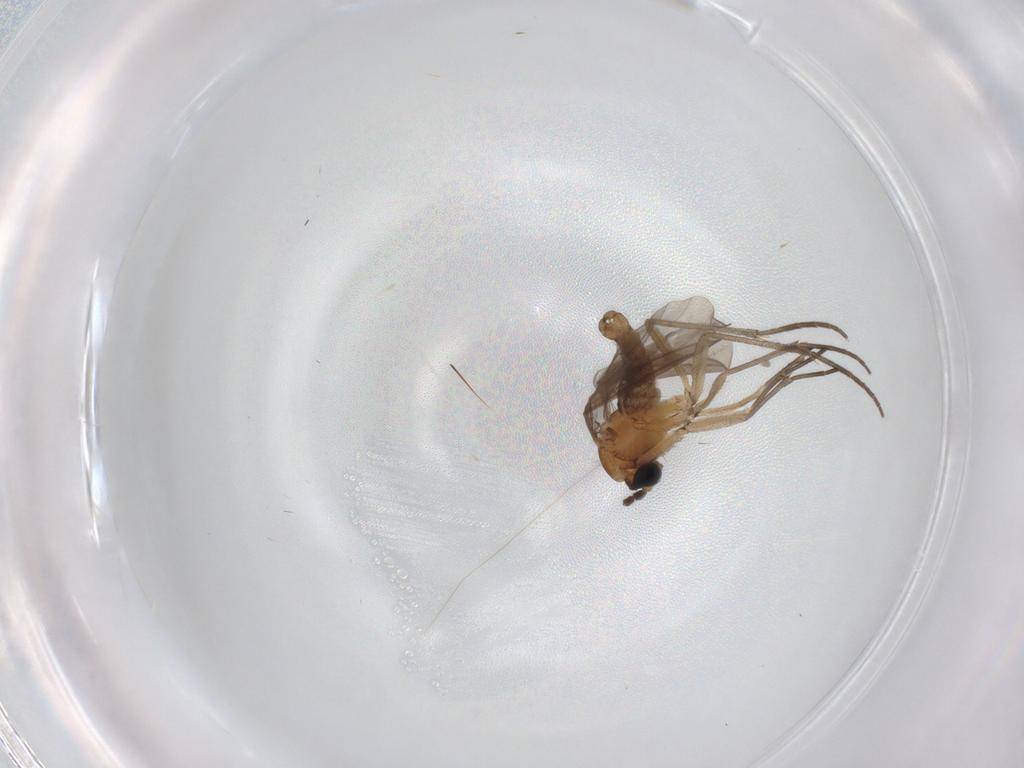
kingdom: Animalia
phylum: Arthropoda
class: Insecta
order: Diptera
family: Sciaridae
